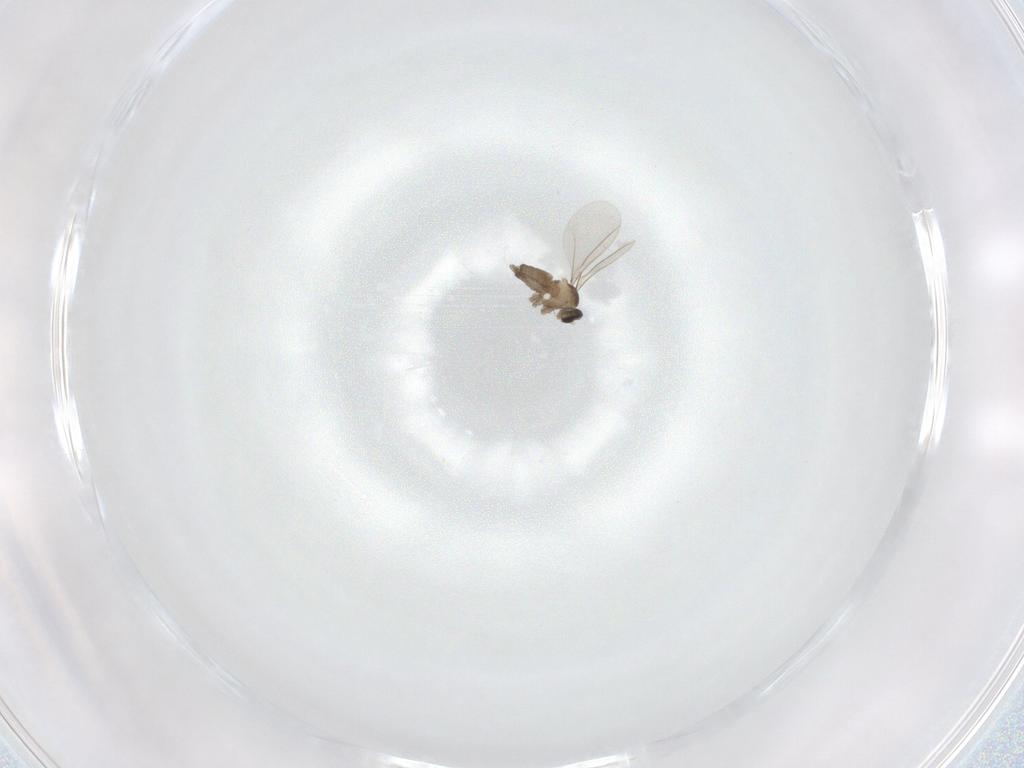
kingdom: Animalia
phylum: Arthropoda
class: Insecta
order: Diptera
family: Cecidomyiidae
